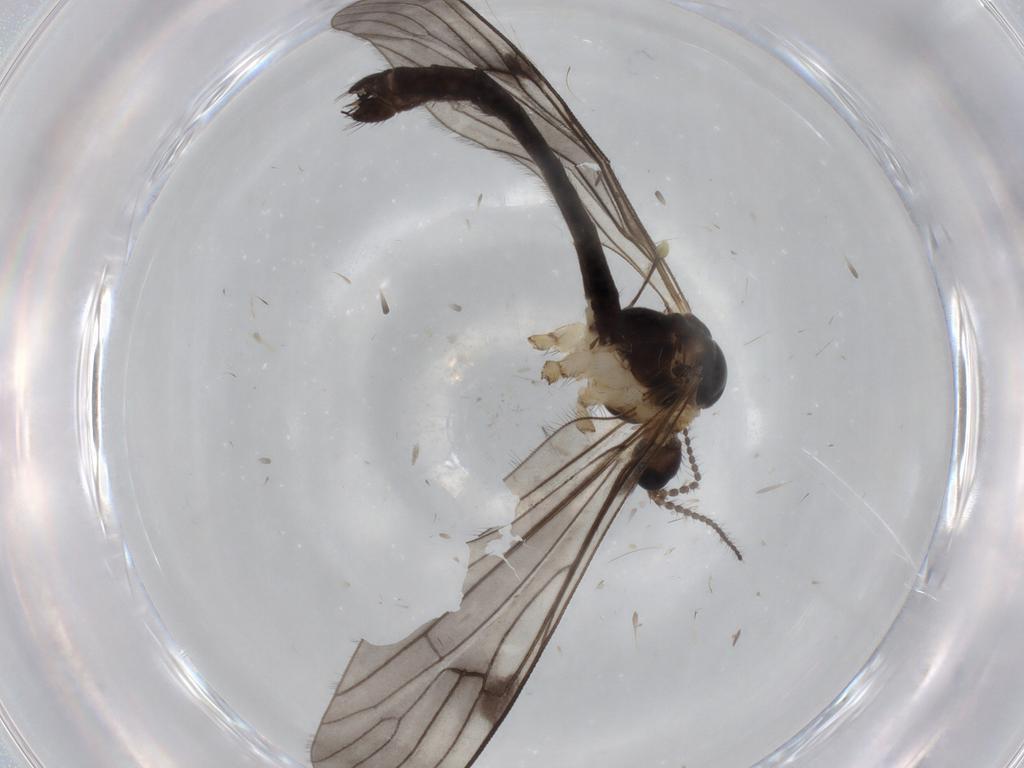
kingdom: Animalia
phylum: Arthropoda
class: Insecta
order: Diptera
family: Limoniidae
